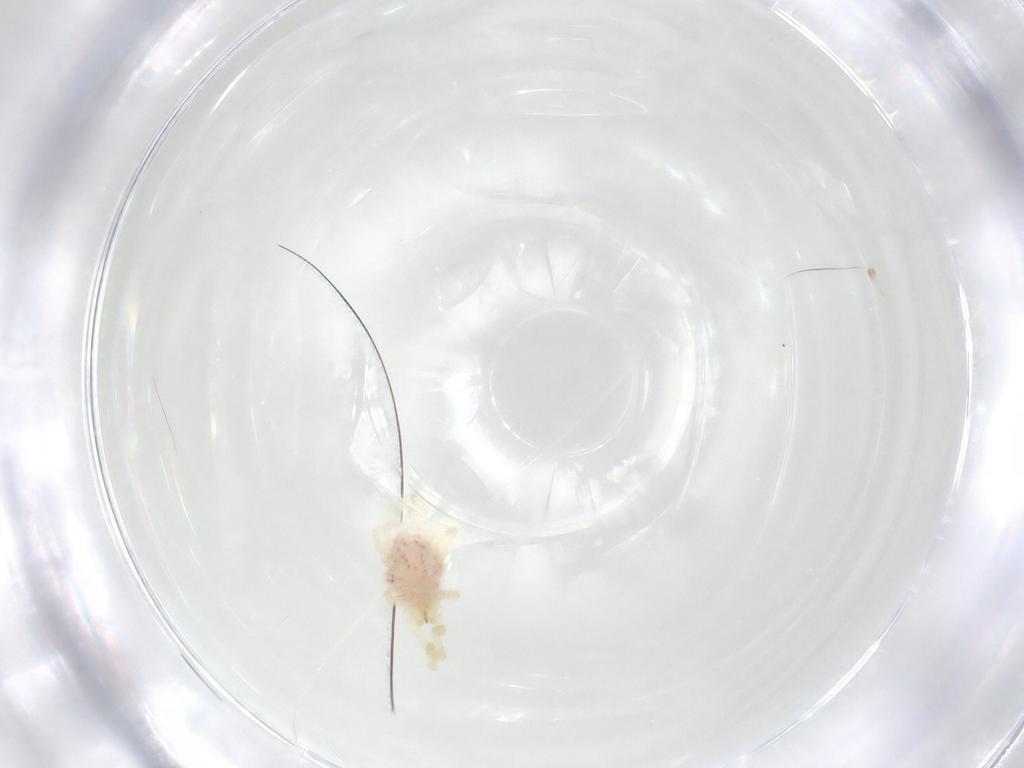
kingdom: Animalia
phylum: Arthropoda
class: Arachnida
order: Trombidiformes
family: Erythraeidae
